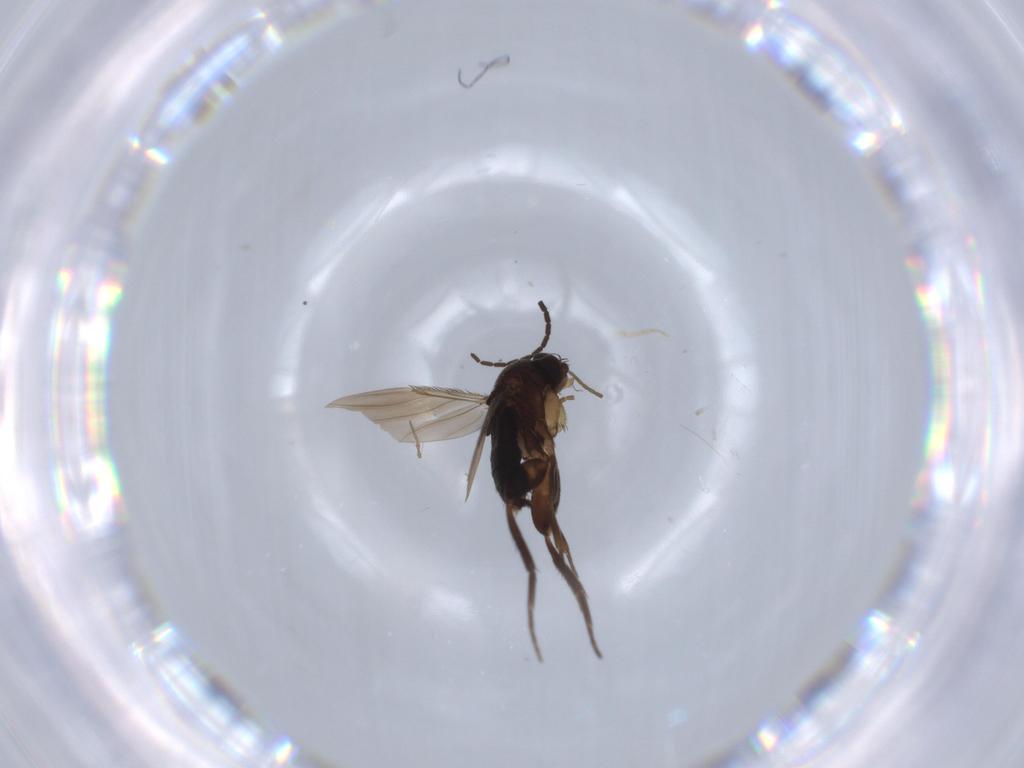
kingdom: Animalia
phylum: Arthropoda
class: Insecta
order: Diptera
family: Phoridae
